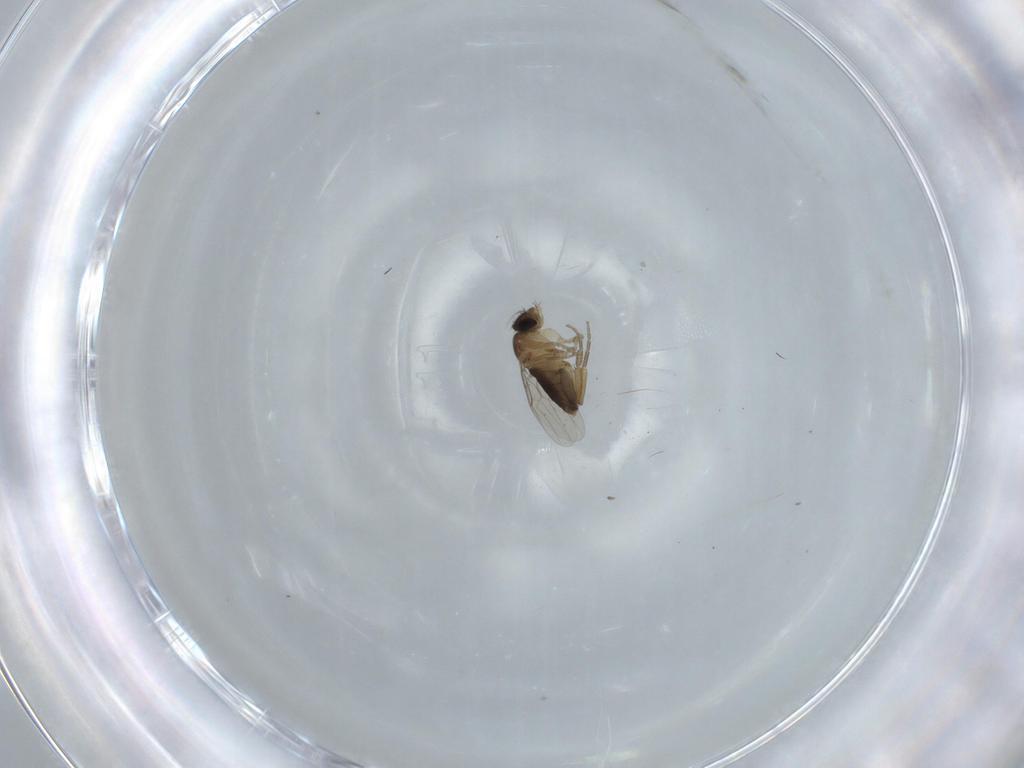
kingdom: Animalia
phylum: Arthropoda
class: Insecta
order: Diptera
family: Phoridae
